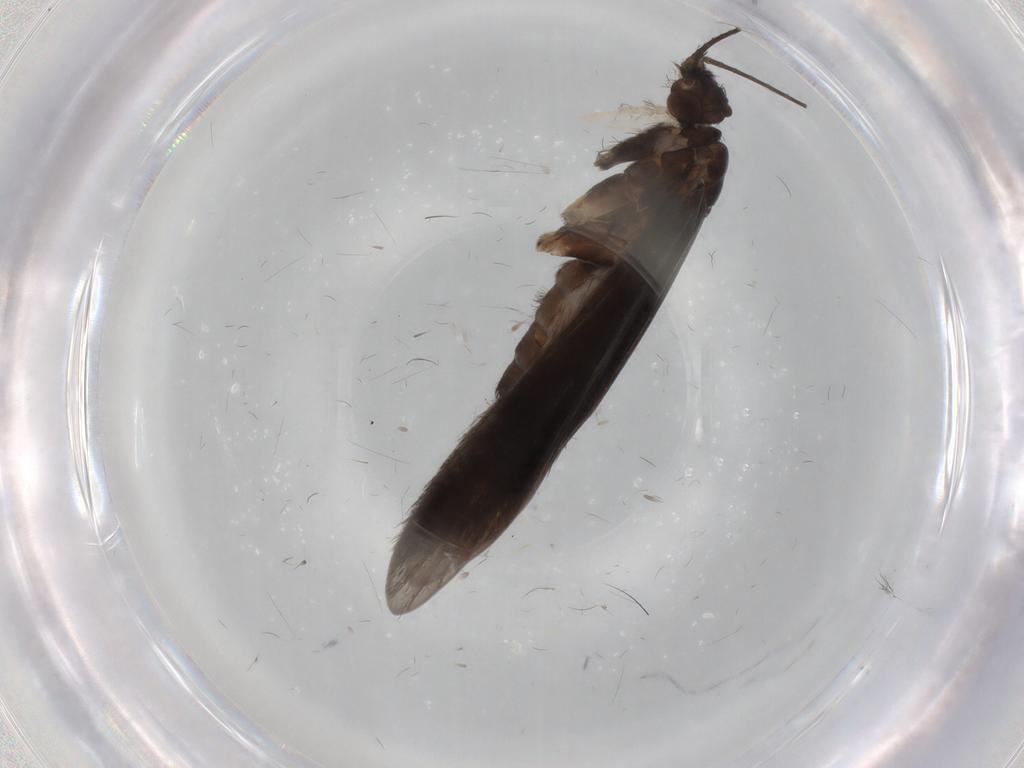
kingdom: Animalia
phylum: Arthropoda
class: Insecta
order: Trichoptera
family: Xiphocentronidae
